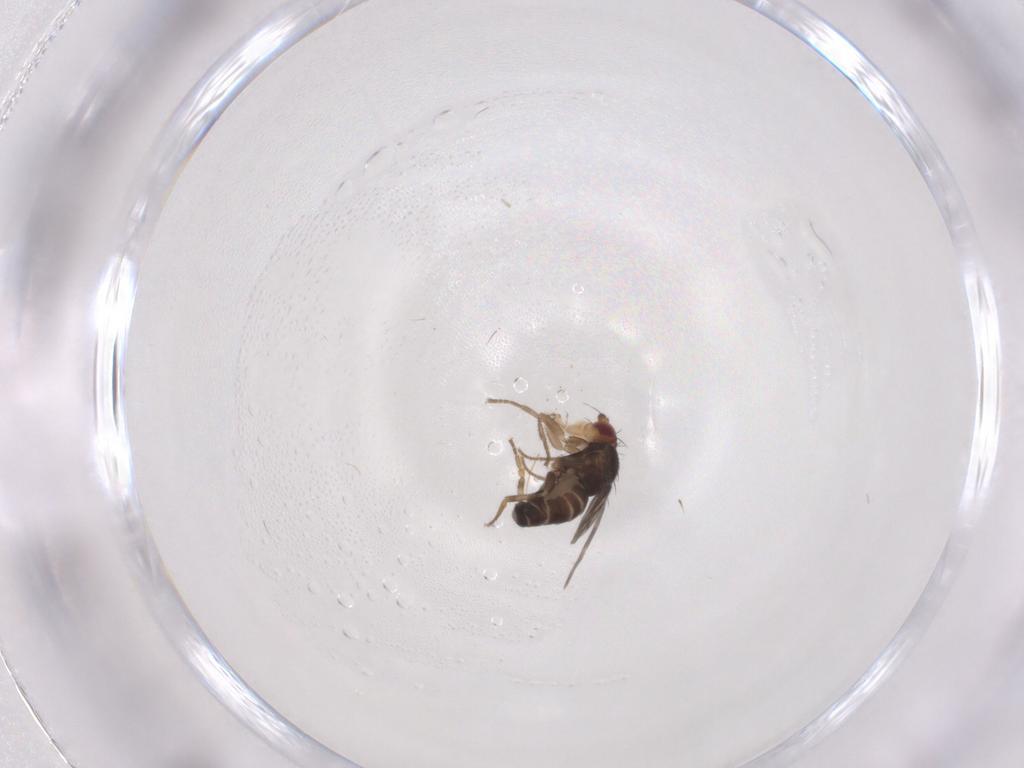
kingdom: Animalia
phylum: Arthropoda
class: Insecta
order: Diptera
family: Sphaeroceridae
